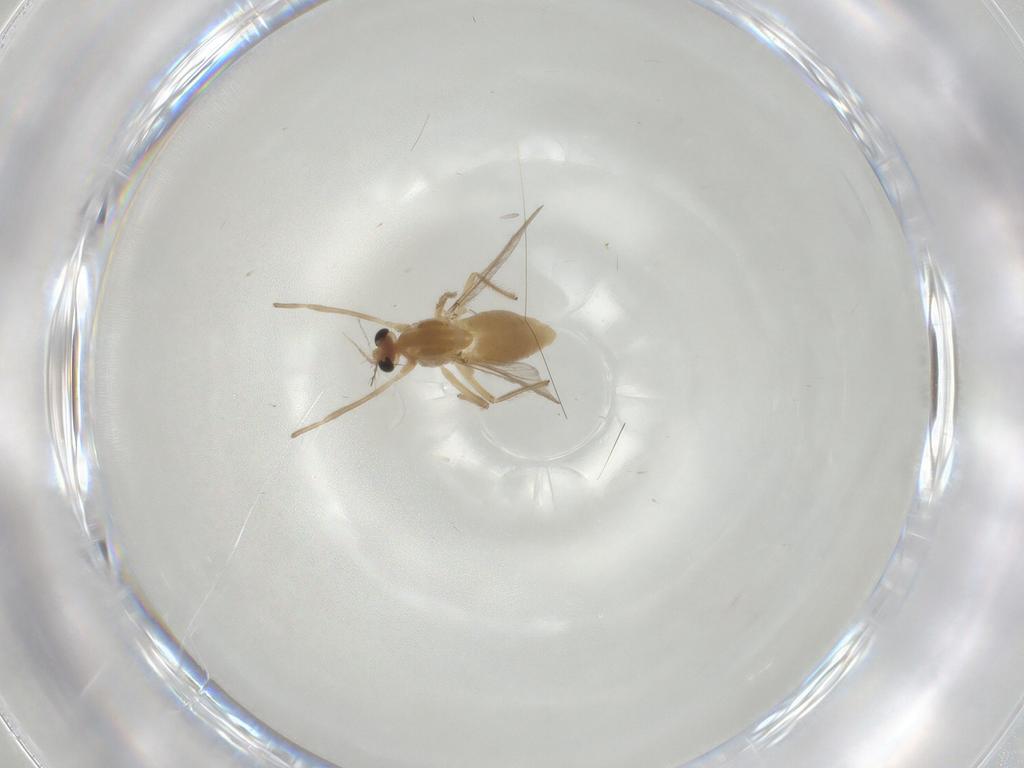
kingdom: Animalia
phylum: Arthropoda
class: Insecta
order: Diptera
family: Chironomidae
